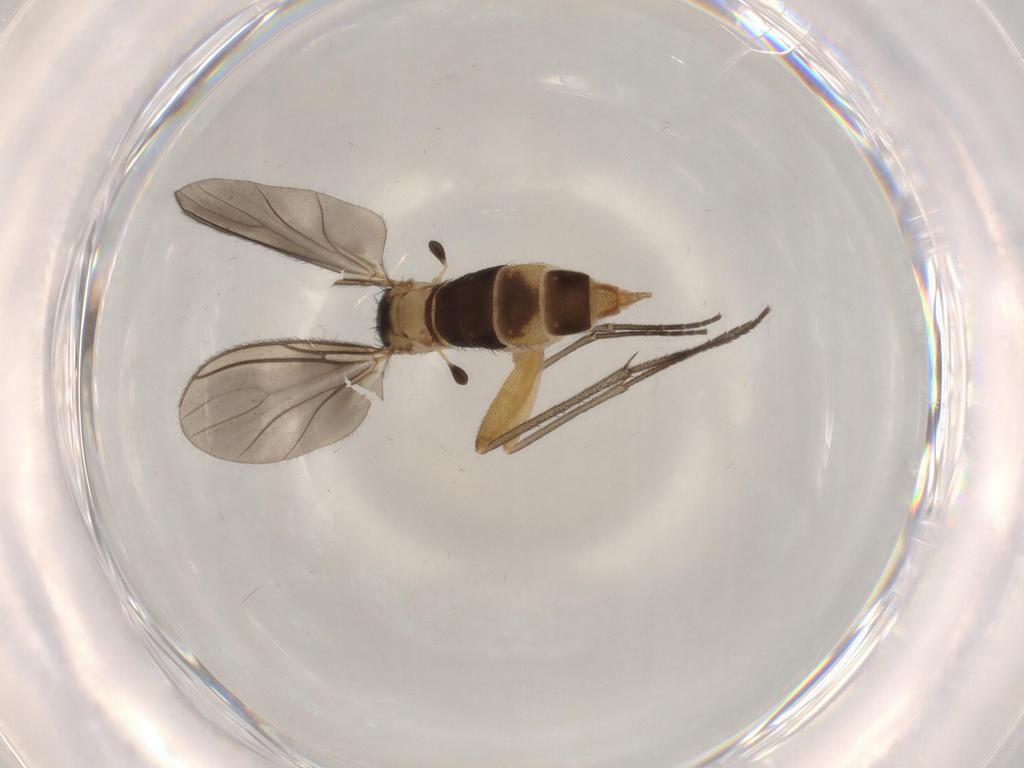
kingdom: Animalia
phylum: Arthropoda
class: Insecta
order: Diptera
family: Sciaridae
